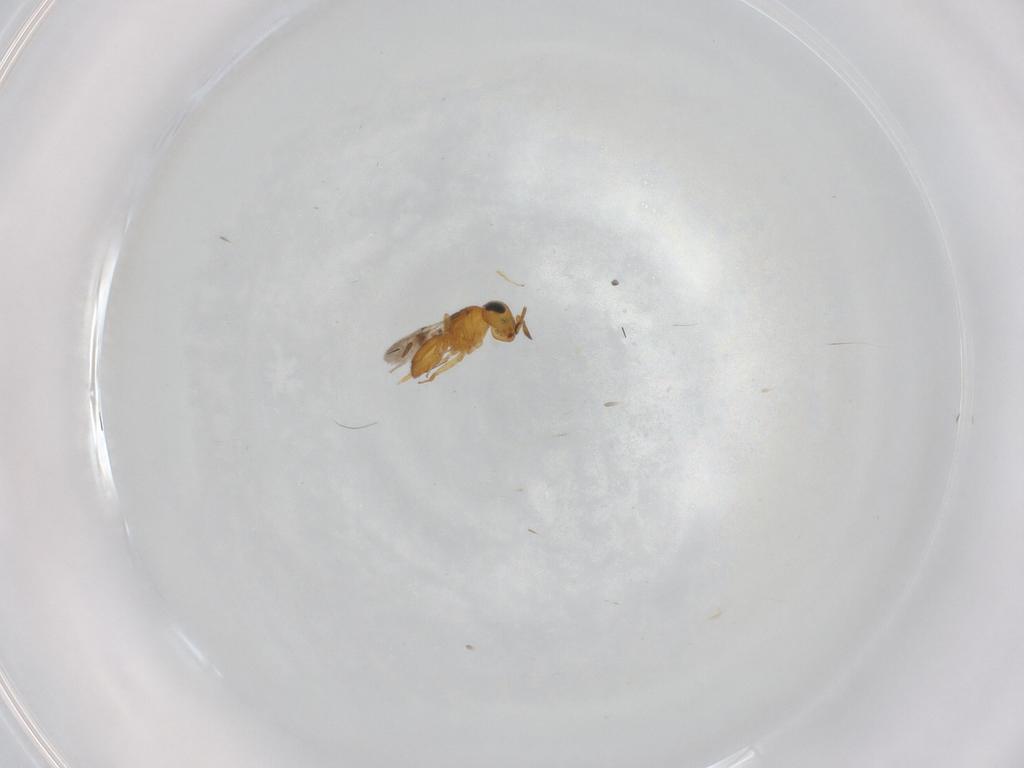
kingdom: Animalia
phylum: Arthropoda
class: Insecta
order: Hymenoptera
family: Scelionidae
